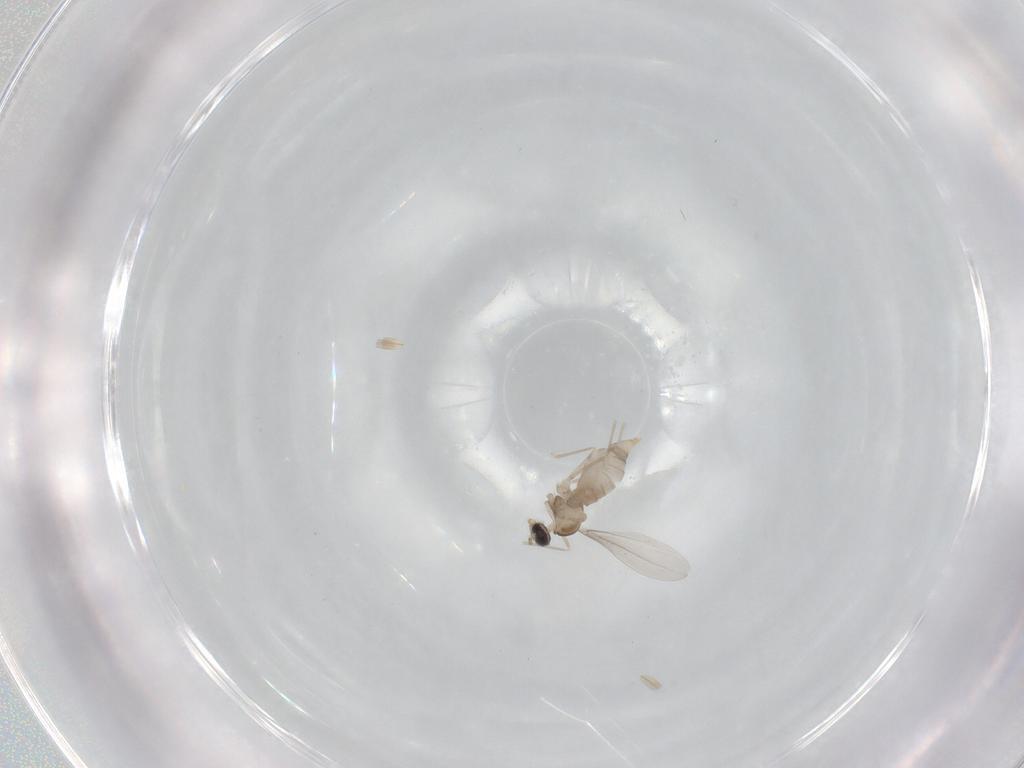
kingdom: Animalia
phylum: Arthropoda
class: Insecta
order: Diptera
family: Cecidomyiidae
